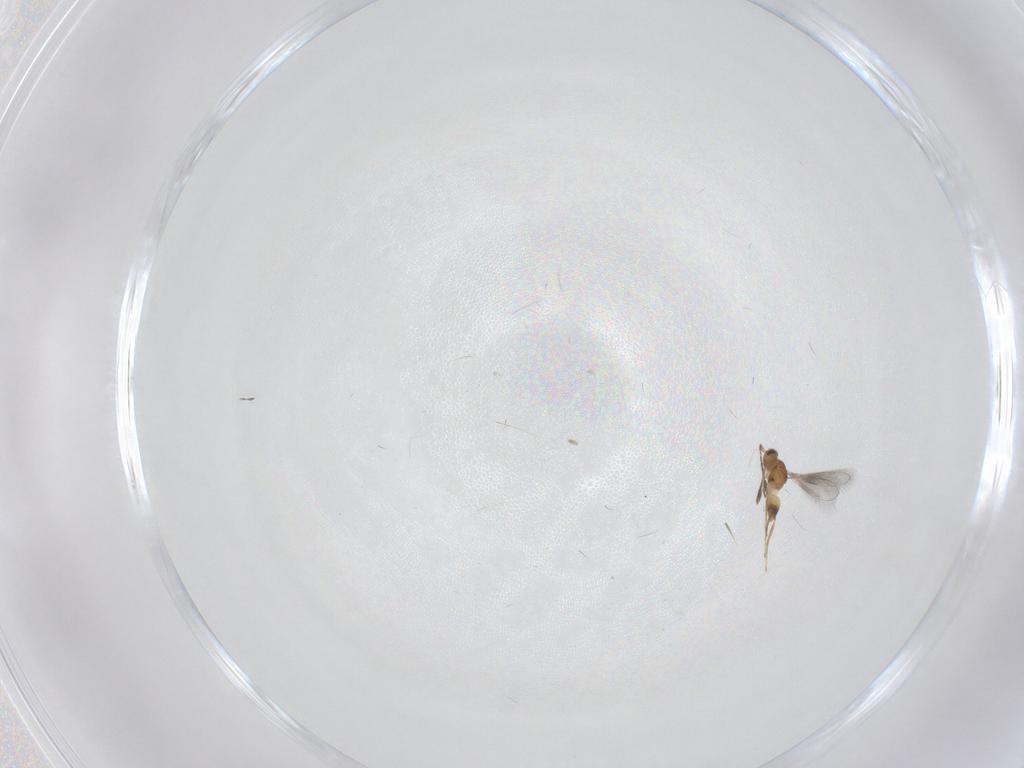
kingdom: Animalia
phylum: Arthropoda
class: Insecta
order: Hymenoptera
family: Mymaridae
